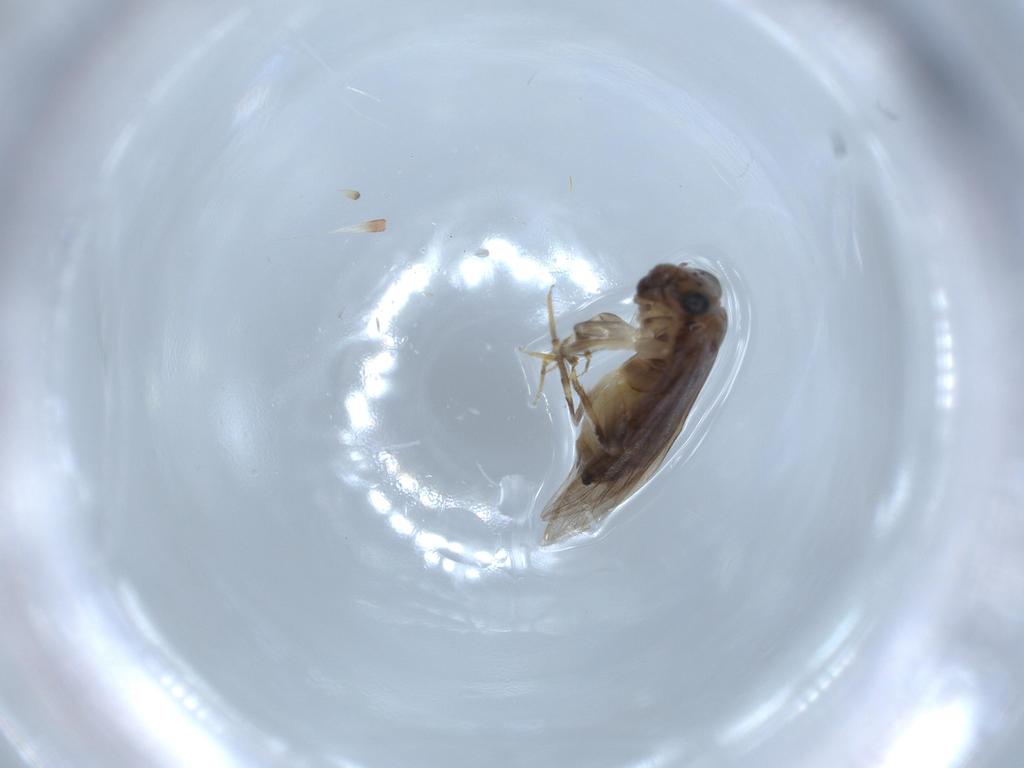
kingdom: Animalia
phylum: Arthropoda
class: Insecta
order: Psocodea
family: Lepidopsocidae
